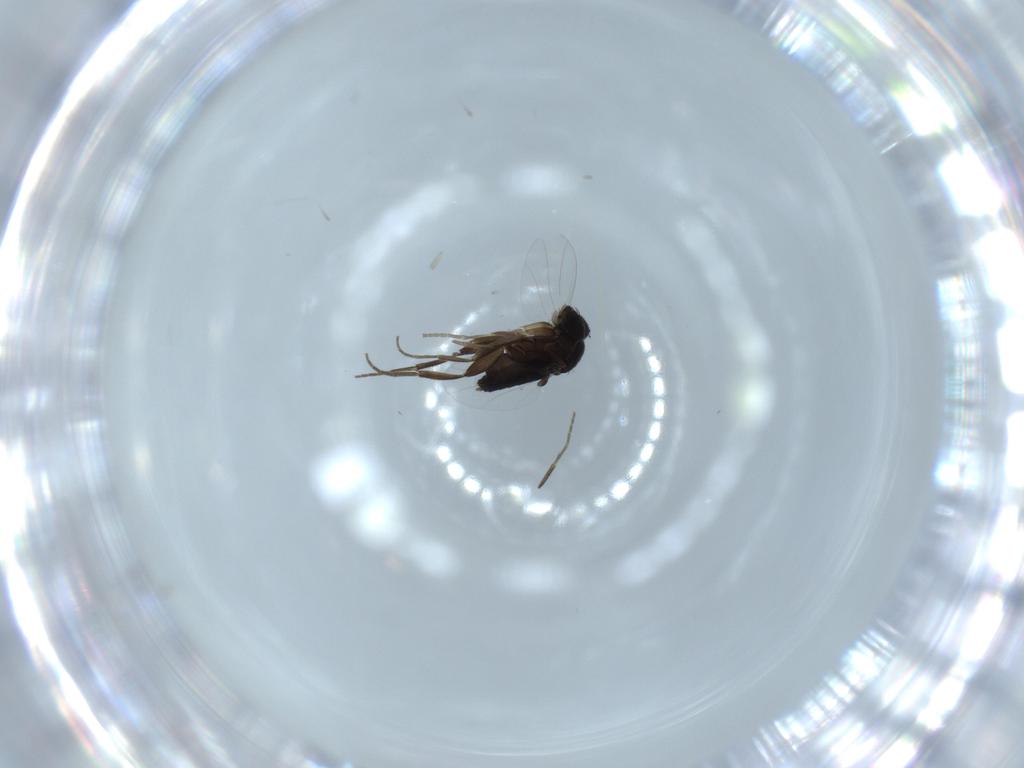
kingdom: Animalia
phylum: Arthropoda
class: Insecta
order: Diptera
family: Phoridae
